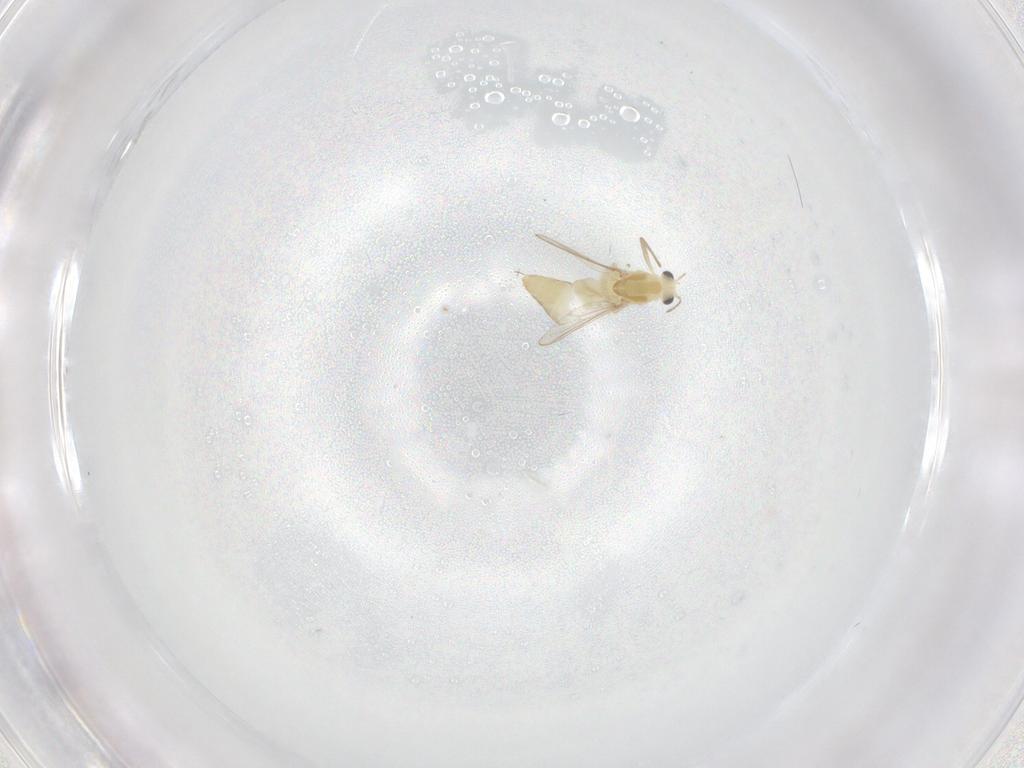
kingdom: Animalia
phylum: Arthropoda
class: Insecta
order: Diptera
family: Chironomidae
